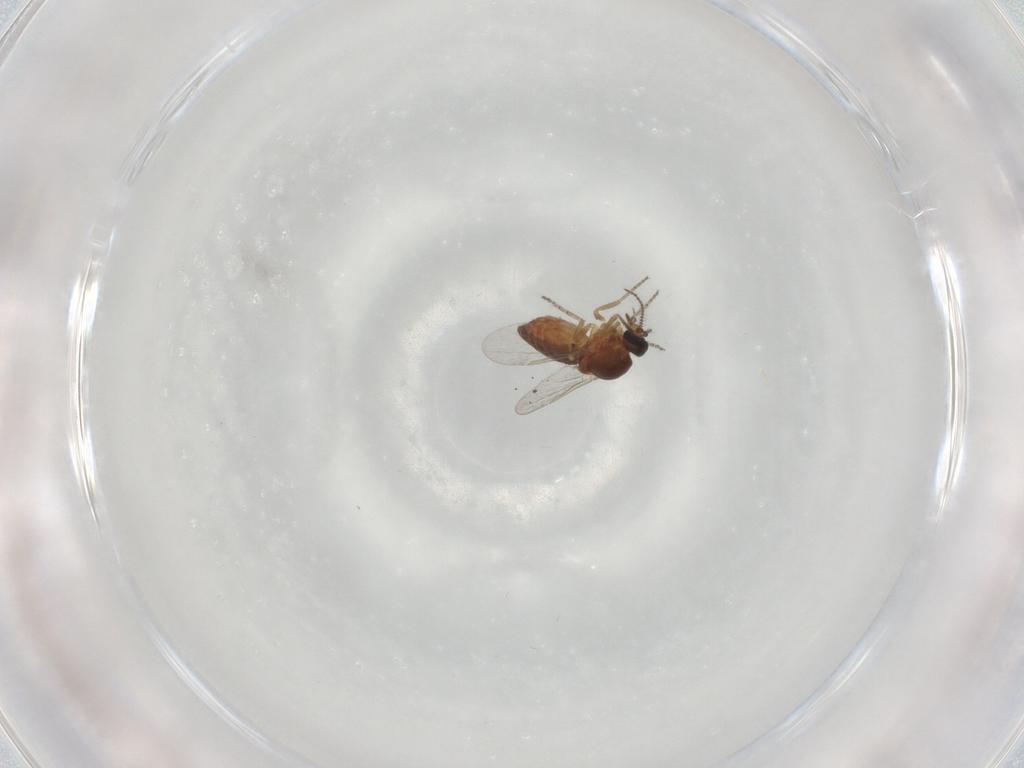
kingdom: Animalia
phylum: Arthropoda
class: Insecta
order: Diptera
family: Ceratopogonidae
